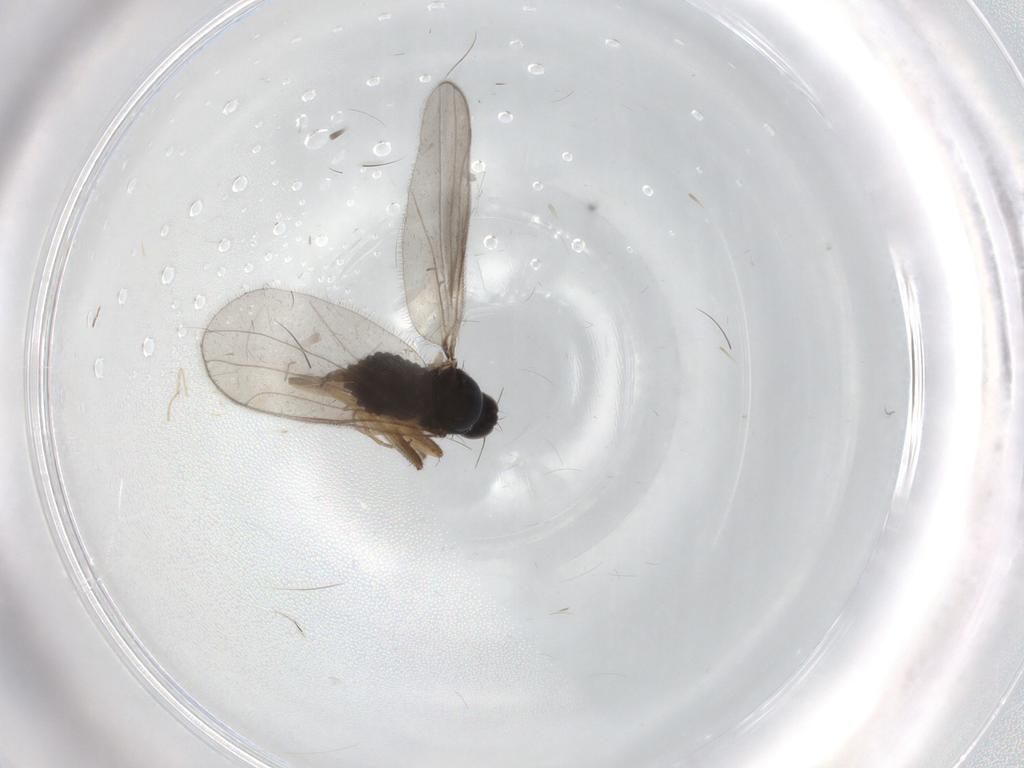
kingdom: Animalia
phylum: Arthropoda
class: Insecta
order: Diptera
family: Hybotidae
